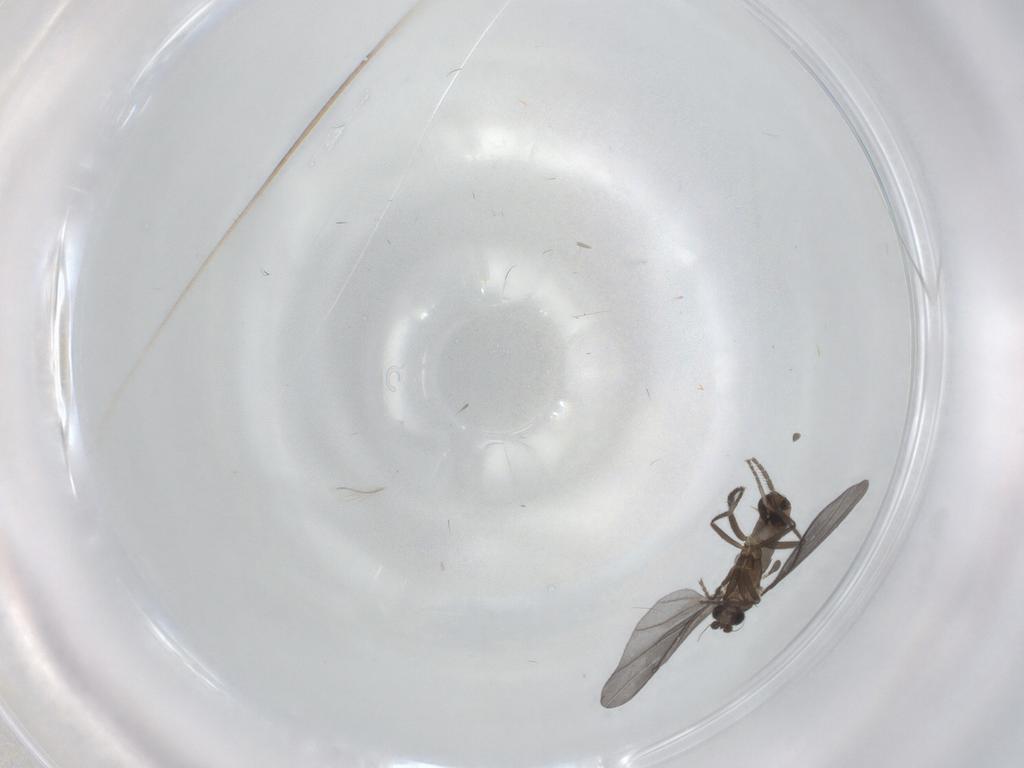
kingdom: Animalia
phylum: Arthropoda
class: Insecta
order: Diptera
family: Phoridae
